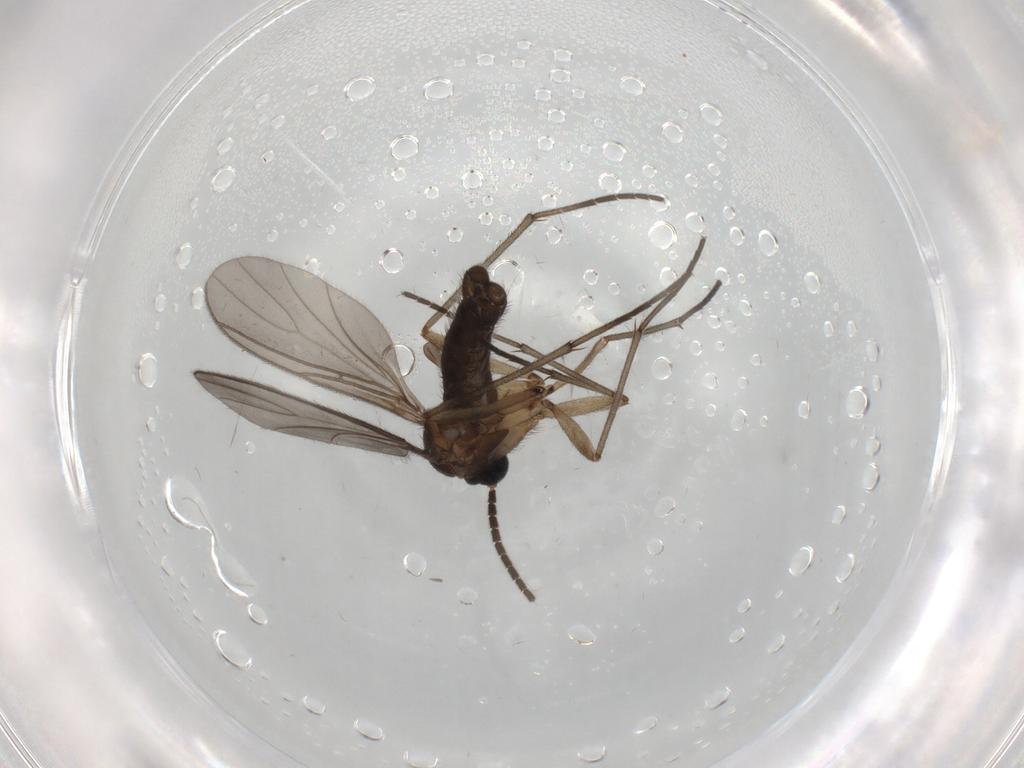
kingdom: Animalia
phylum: Arthropoda
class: Insecta
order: Diptera
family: Sciaridae
